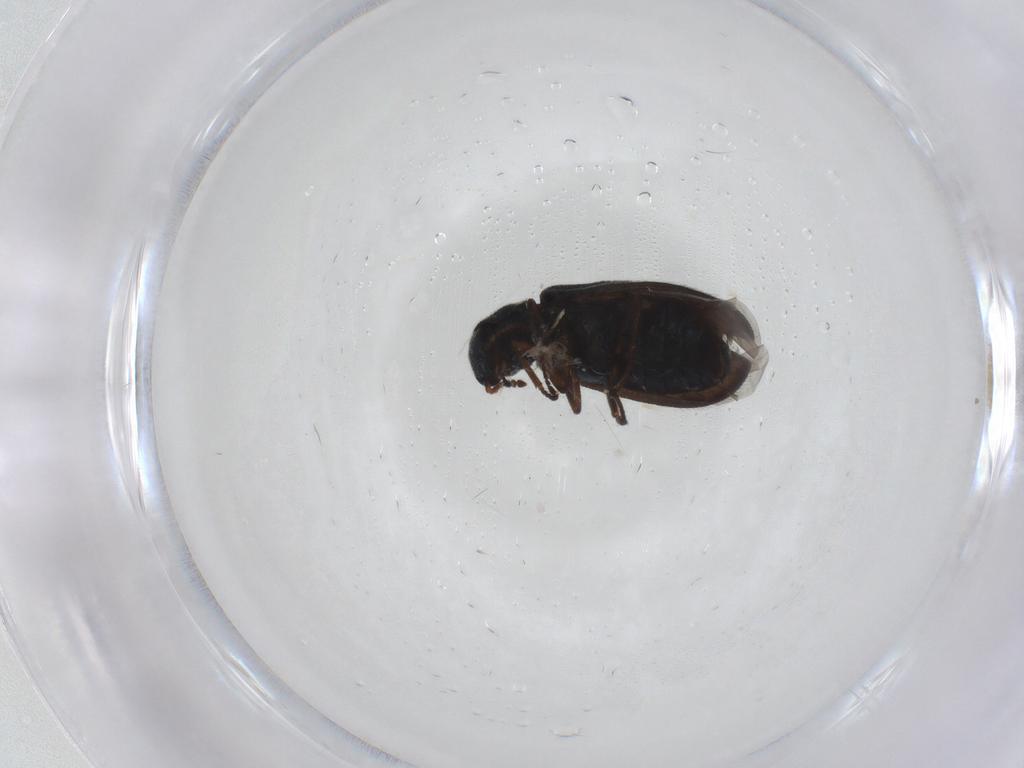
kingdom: Animalia
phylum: Arthropoda
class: Insecta
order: Coleoptera
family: Melyridae
